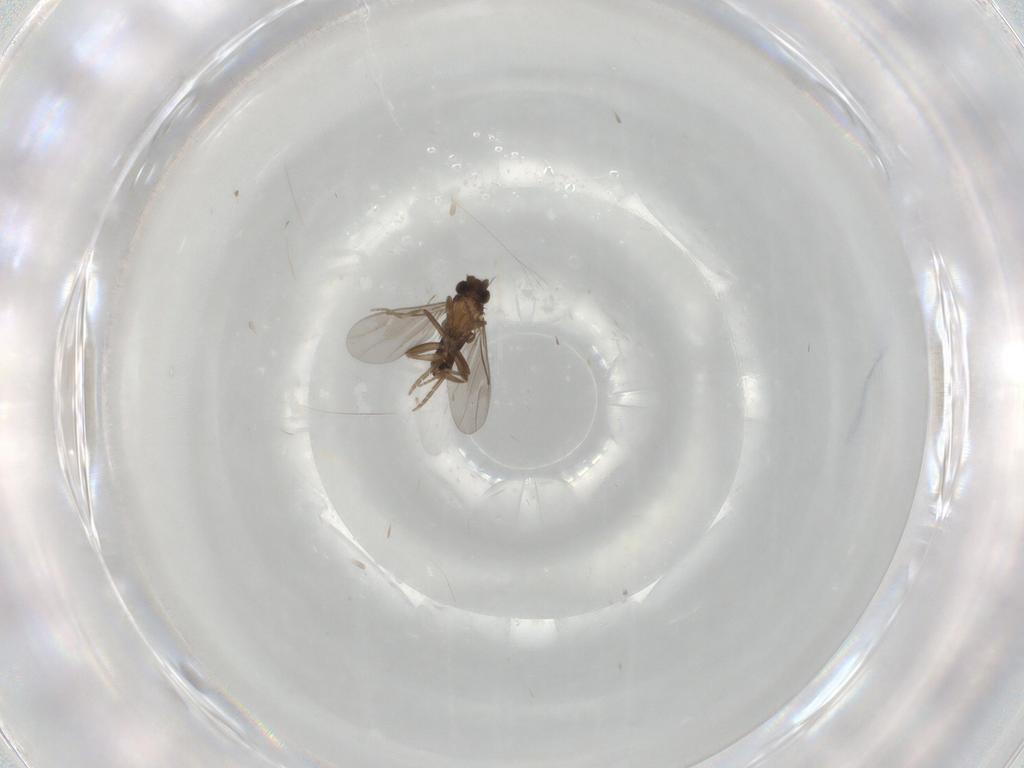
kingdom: Animalia
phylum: Arthropoda
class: Insecta
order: Diptera
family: Phoridae
